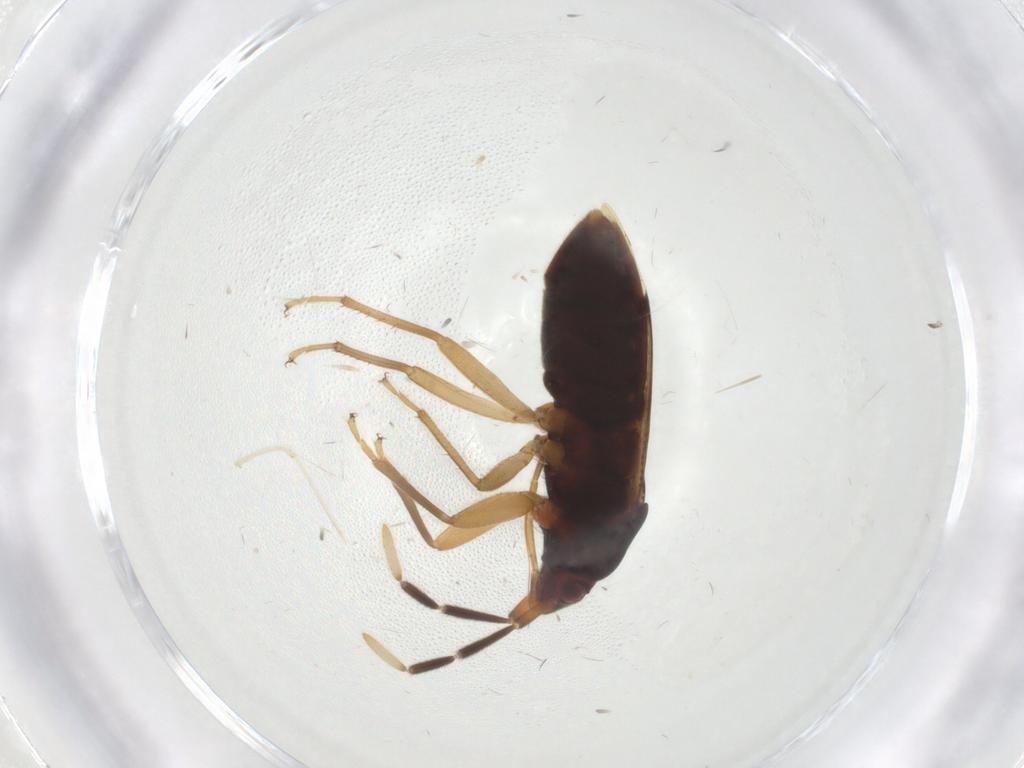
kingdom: Animalia
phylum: Arthropoda
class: Insecta
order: Hemiptera
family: Rhyparochromidae
